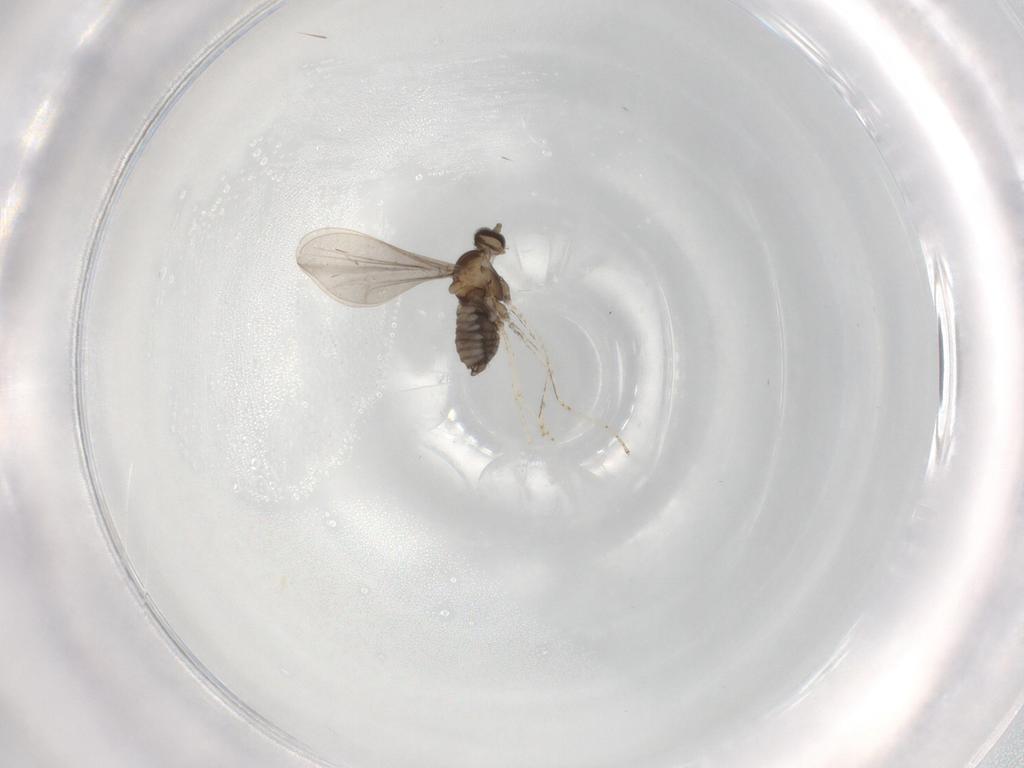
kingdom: Animalia
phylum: Arthropoda
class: Insecta
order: Diptera
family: Cecidomyiidae
